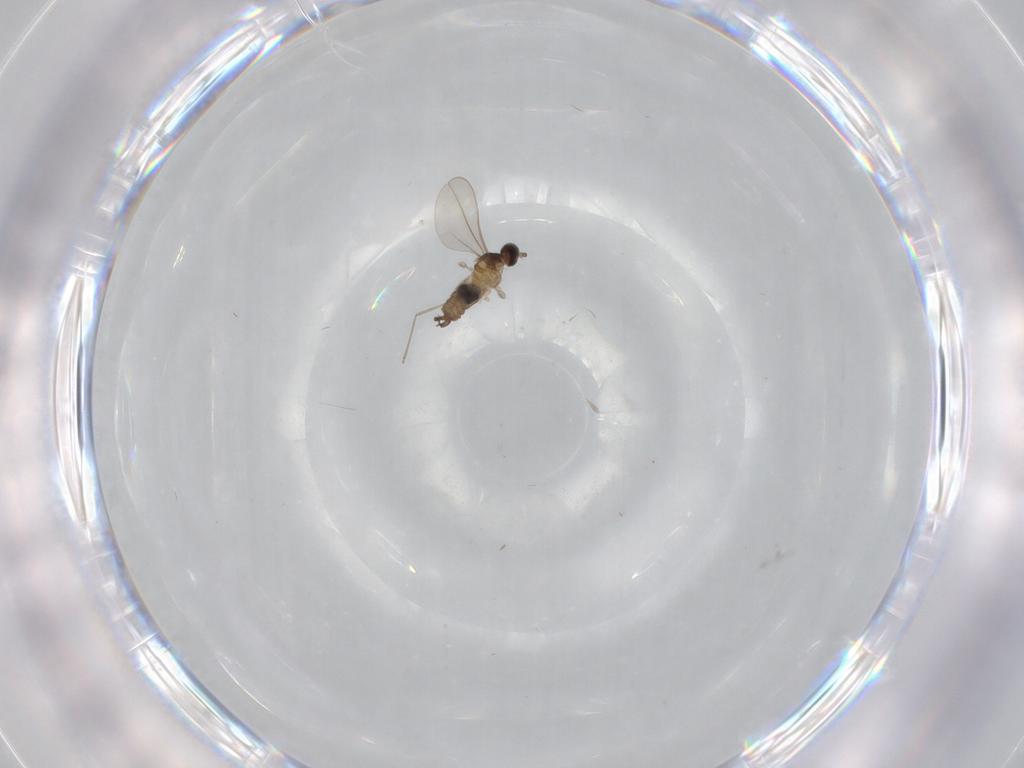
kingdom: Animalia
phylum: Arthropoda
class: Insecta
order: Diptera
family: Cecidomyiidae
